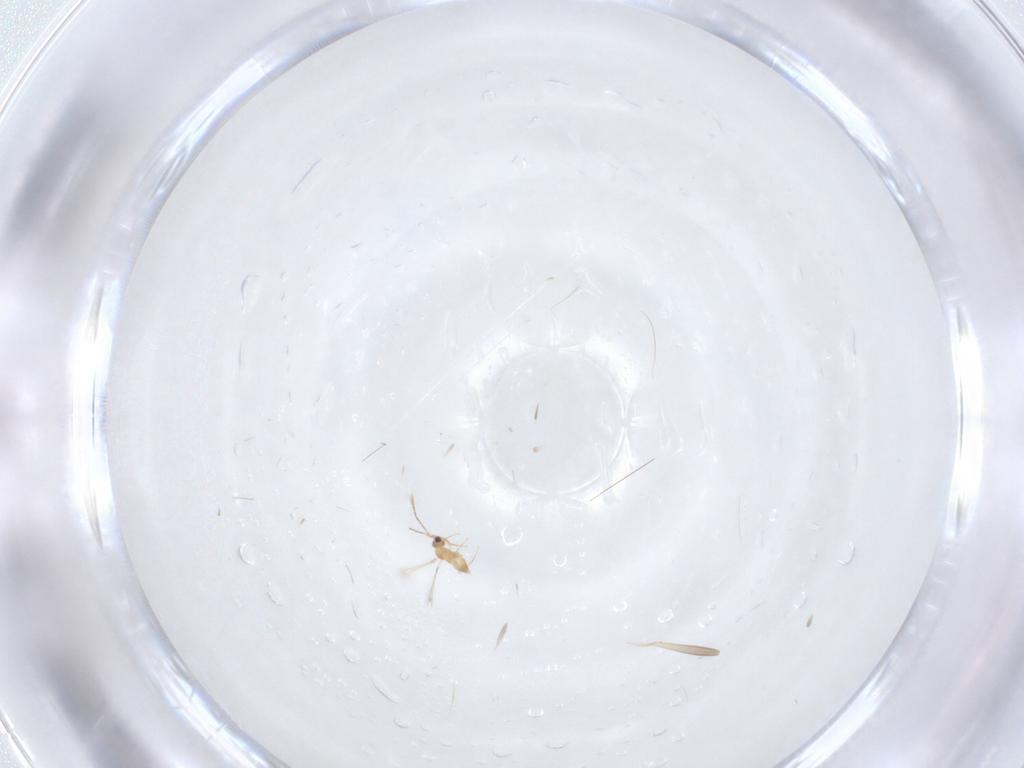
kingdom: Animalia
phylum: Arthropoda
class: Insecta
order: Hymenoptera
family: Mymaridae
